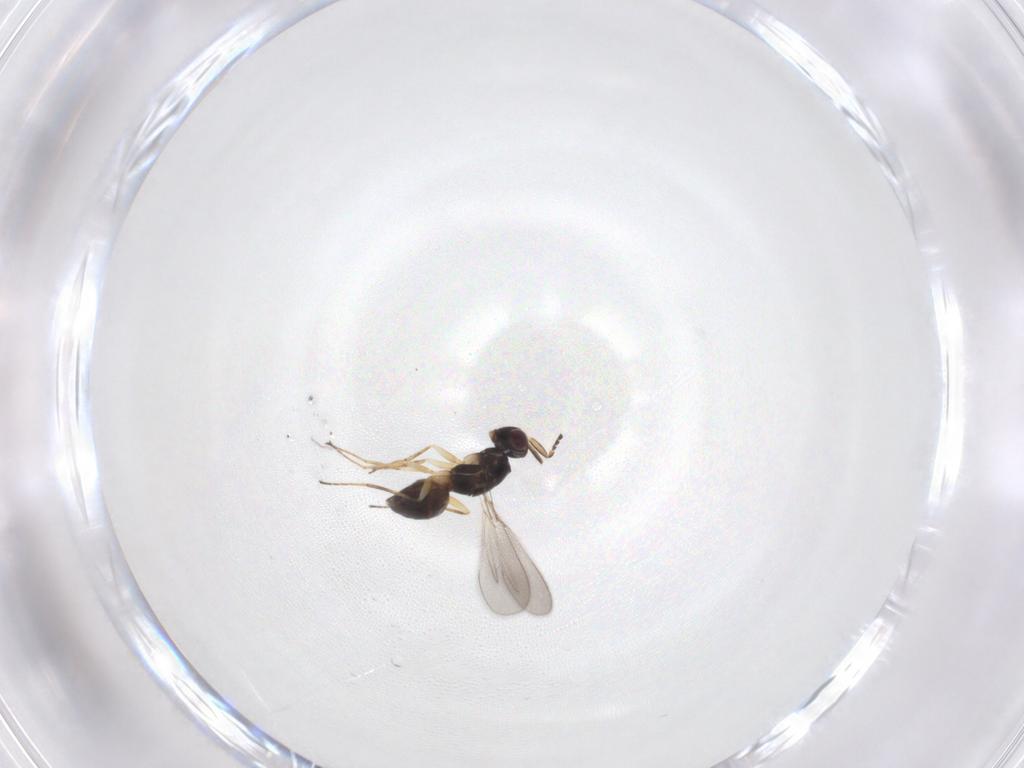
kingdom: Animalia
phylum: Arthropoda
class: Insecta
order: Hymenoptera
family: Mymaridae
